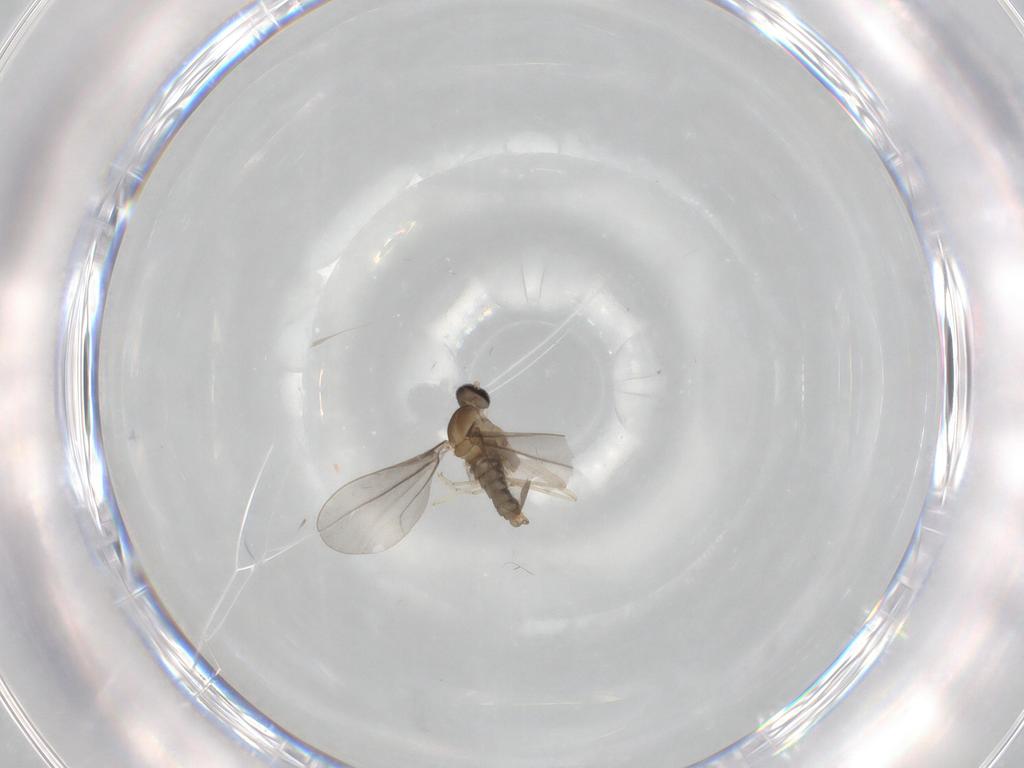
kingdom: Animalia
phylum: Arthropoda
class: Insecta
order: Diptera
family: Cecidomyiidae
